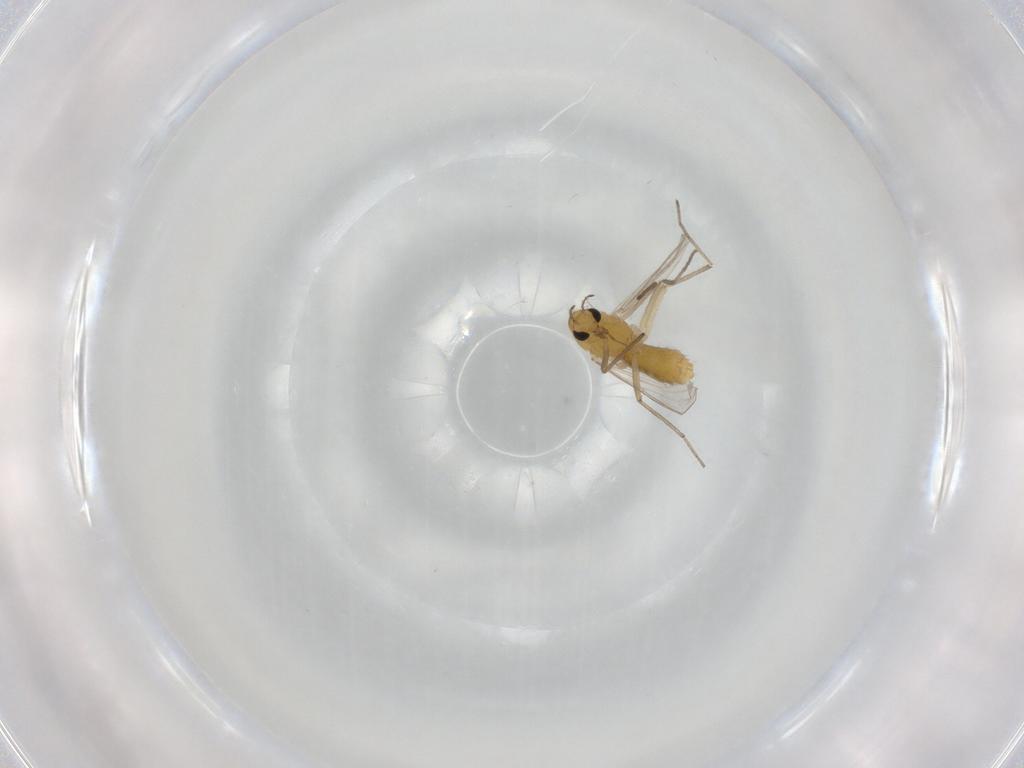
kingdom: Animalia
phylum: Arthropoda
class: Insecta
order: Diptera
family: Chironomidae
